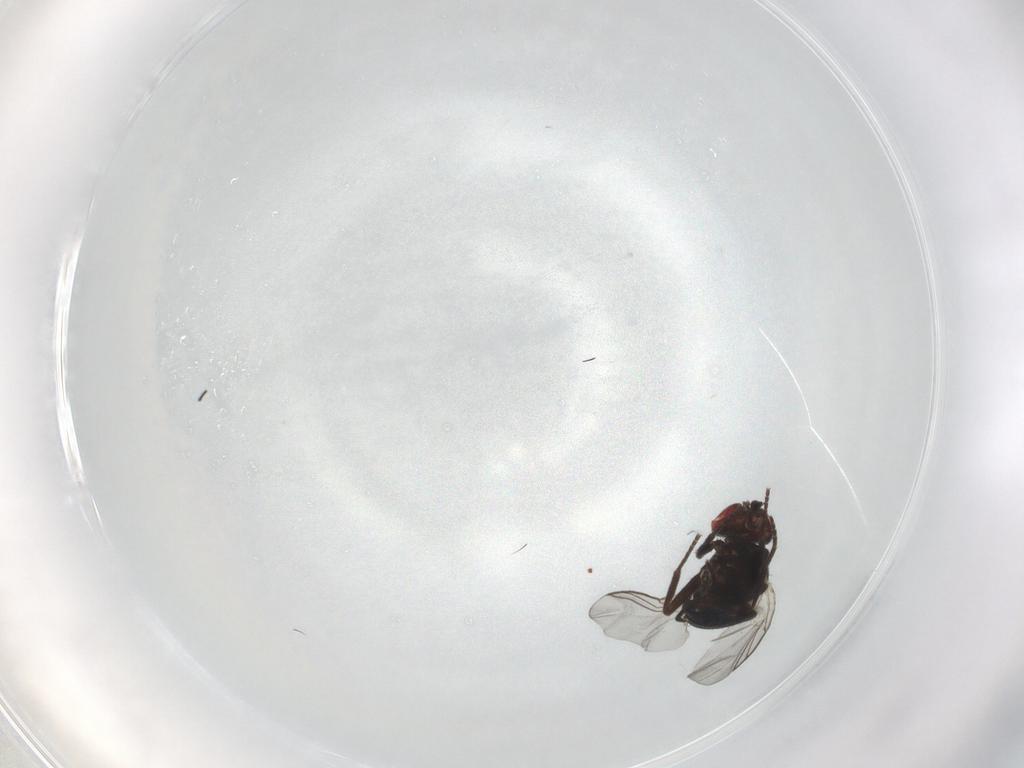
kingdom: Animalia
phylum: Arthropoda
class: Insecta
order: Diptera
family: Phoridae
